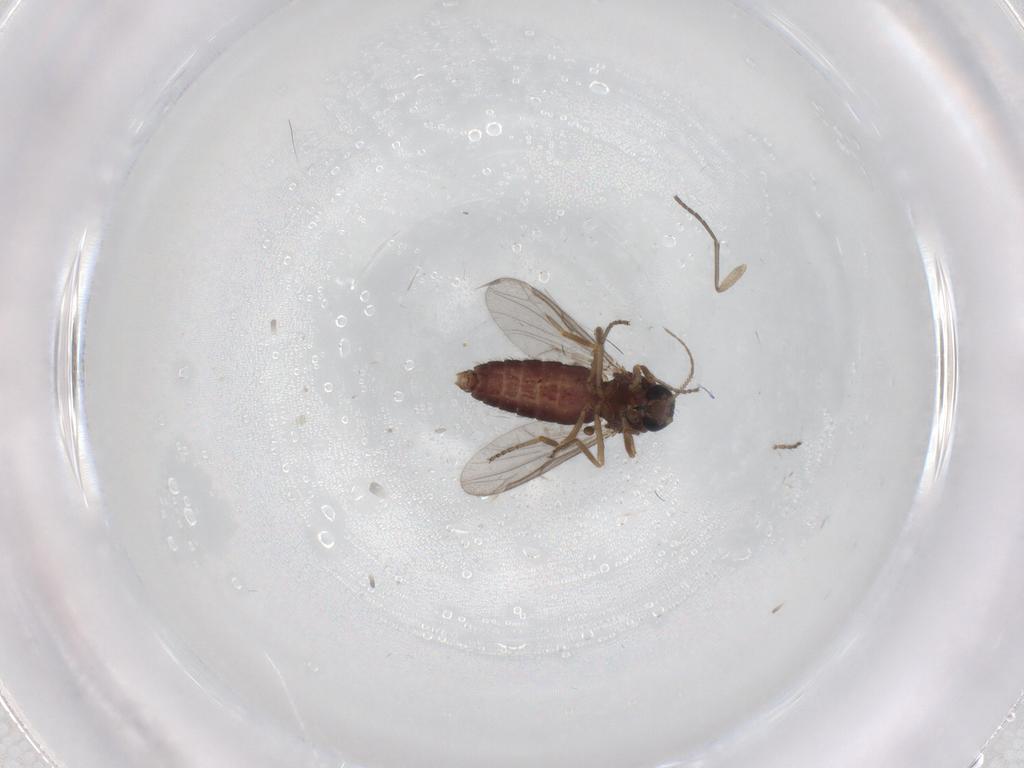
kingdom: Animalia
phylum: Arthropoda
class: Insecta
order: Diptera
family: Ceratopogonidae
